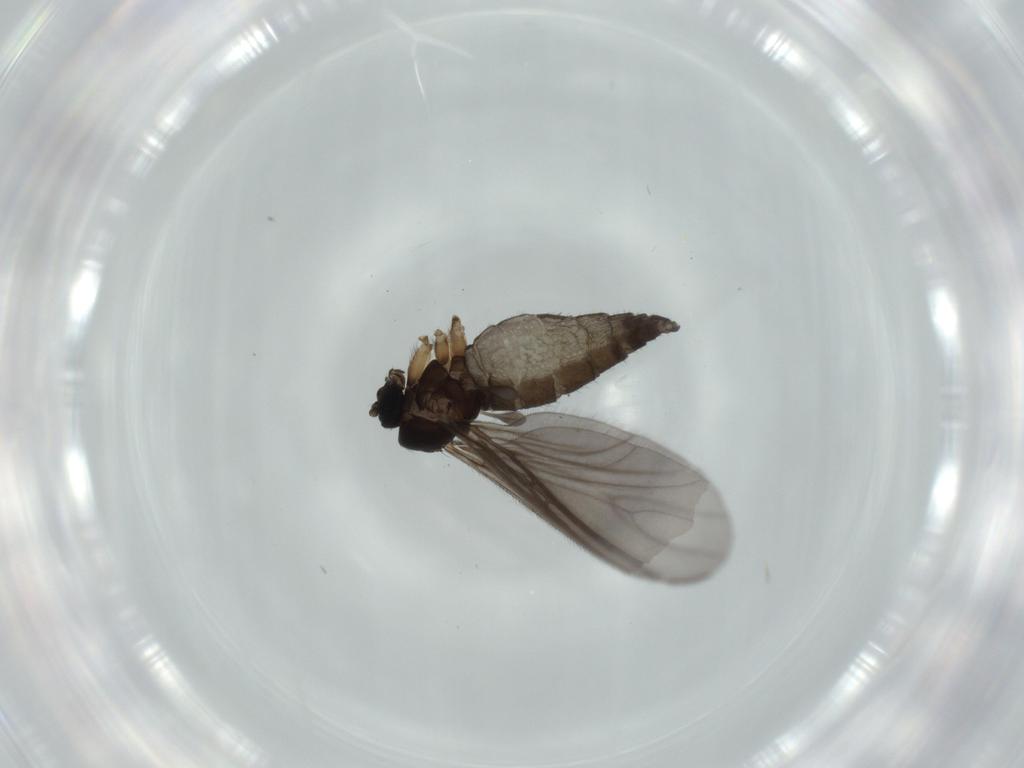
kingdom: Animalia
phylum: Arthropoda
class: Insecta
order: Diptera
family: Sciaridae
